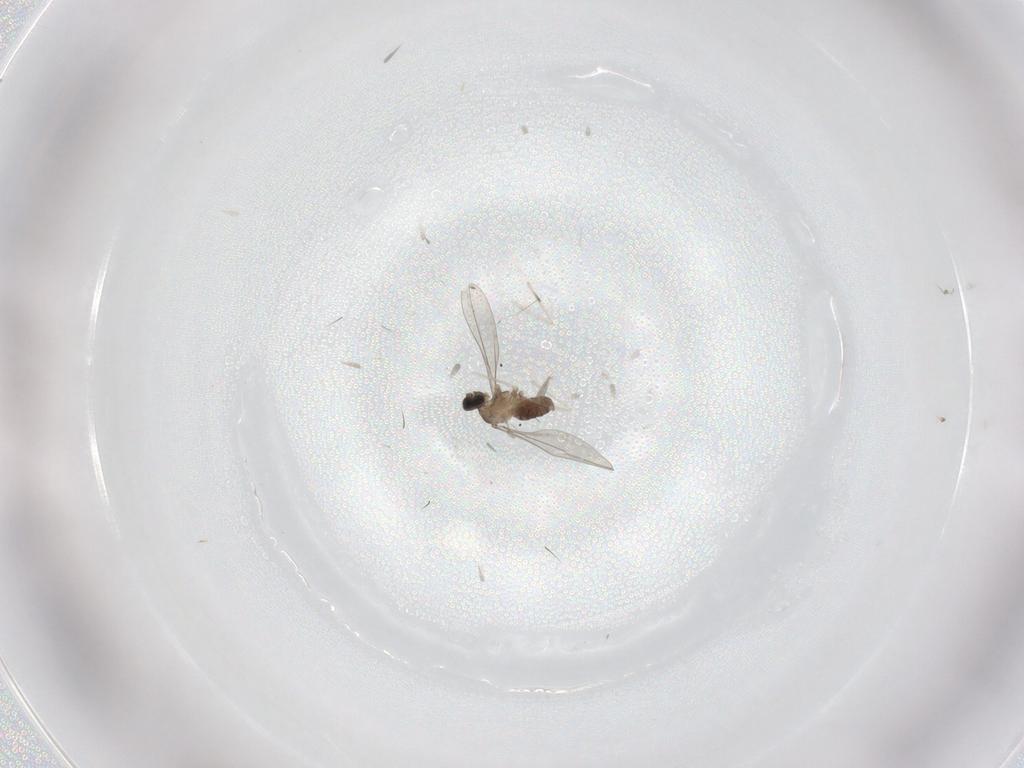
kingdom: Animalia
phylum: Arthropoda
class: Insecta
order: Diptera
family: Cecidomyiidae
